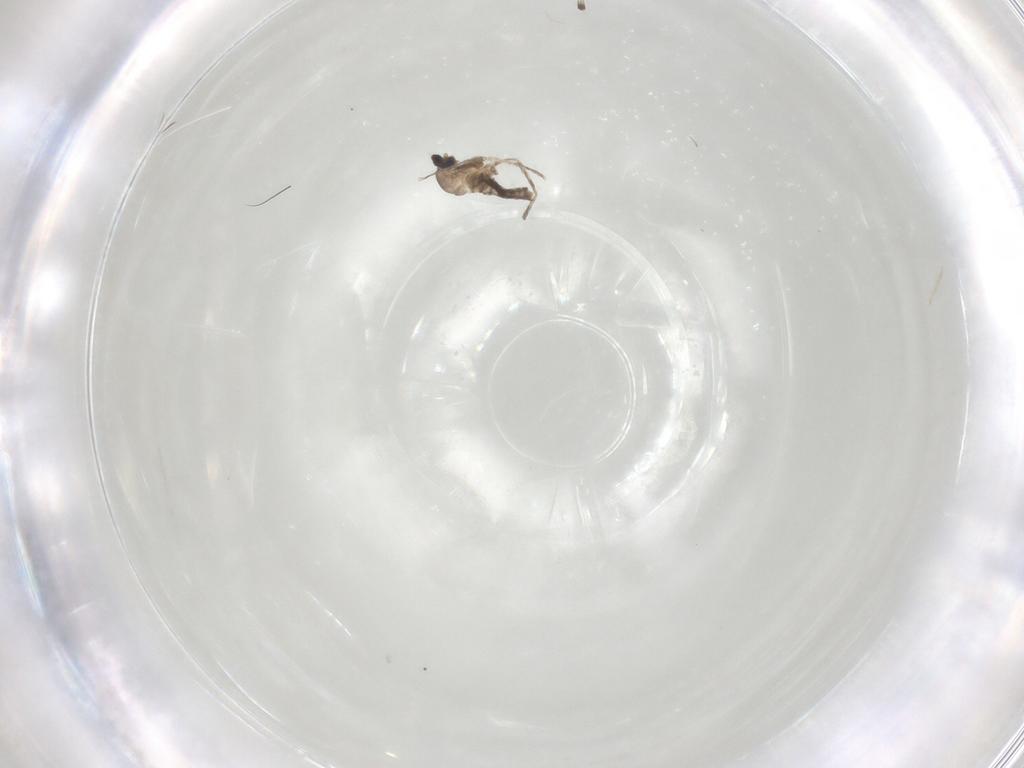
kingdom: Animalia
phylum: Arthropoda
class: Insecta
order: Diptera
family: Cecidomyiidae
